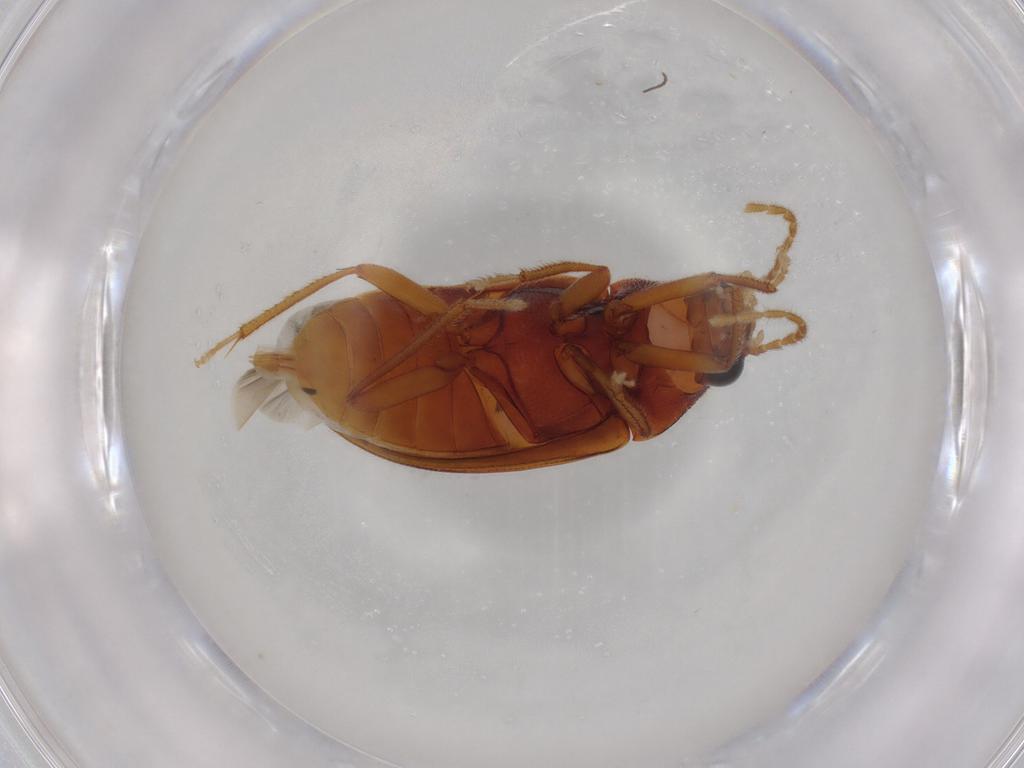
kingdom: Animalia
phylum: Arthropoda
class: Insecta
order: Coleoptera
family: Ptilodactylidae
